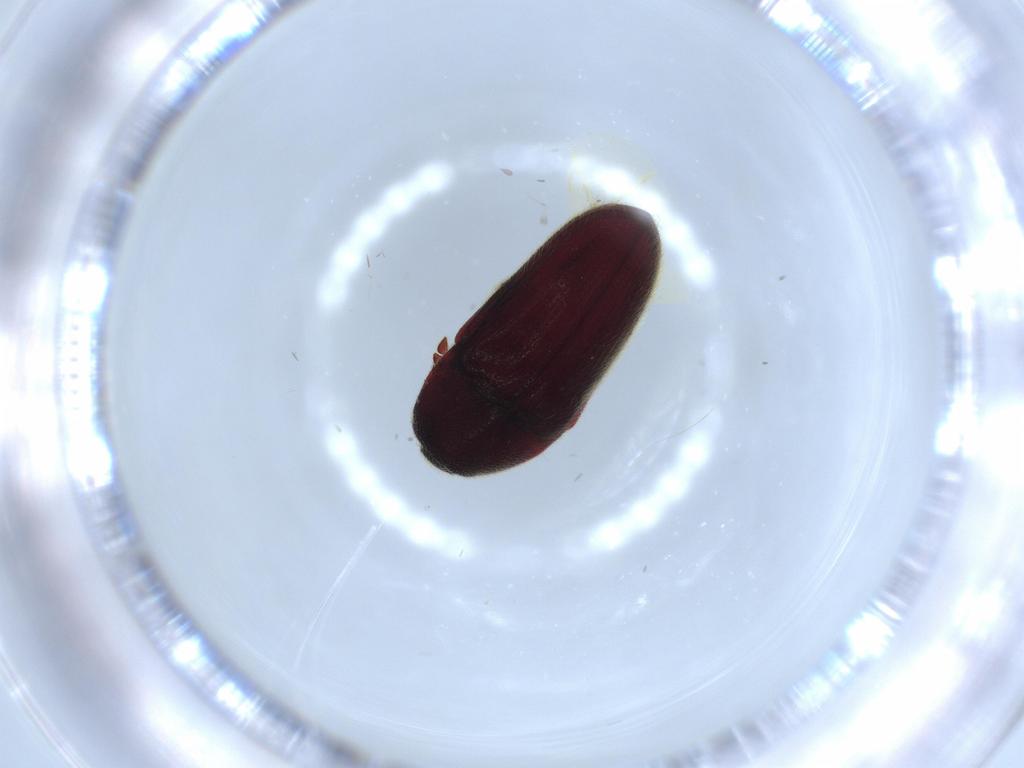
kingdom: Animalia
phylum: Arthropoda
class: Insecta
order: Coleoptera
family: Throscidae
